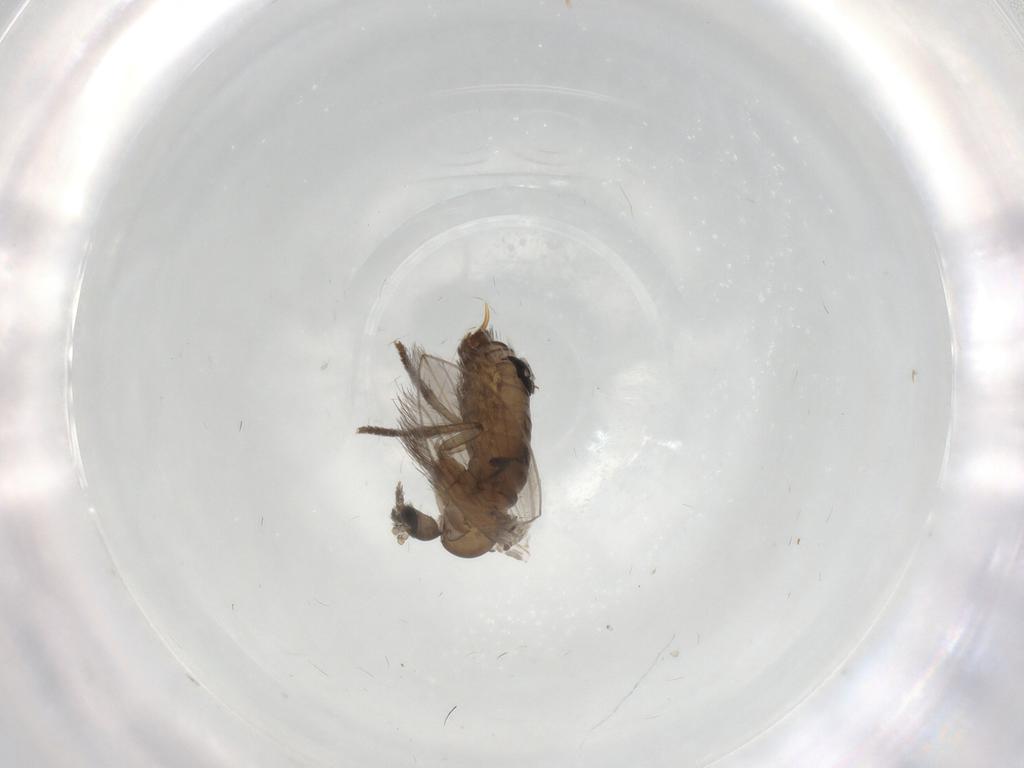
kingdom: Animalia
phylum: Arthropoda
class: Insecta
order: Diptera
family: Psychodidae
